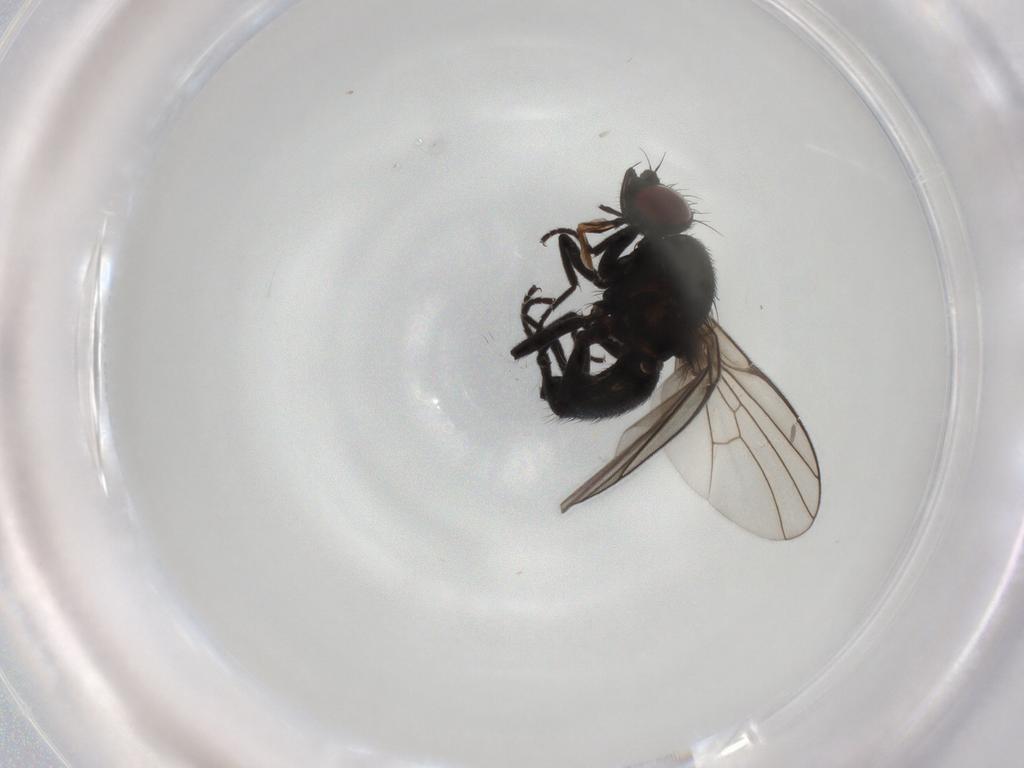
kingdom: Animalia
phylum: Arthropoda
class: Insecta
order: Diptera
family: Agromyzidae
